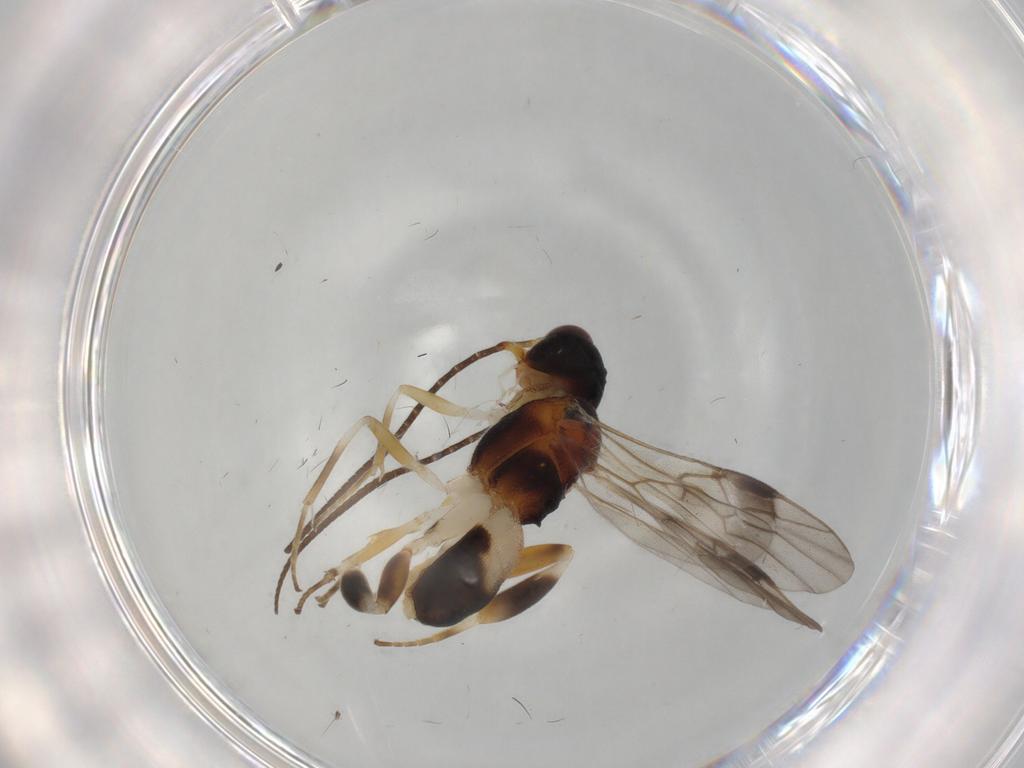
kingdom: Animalia
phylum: Arthropoda
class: Insecta
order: Hymenoptera
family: Braconidae
